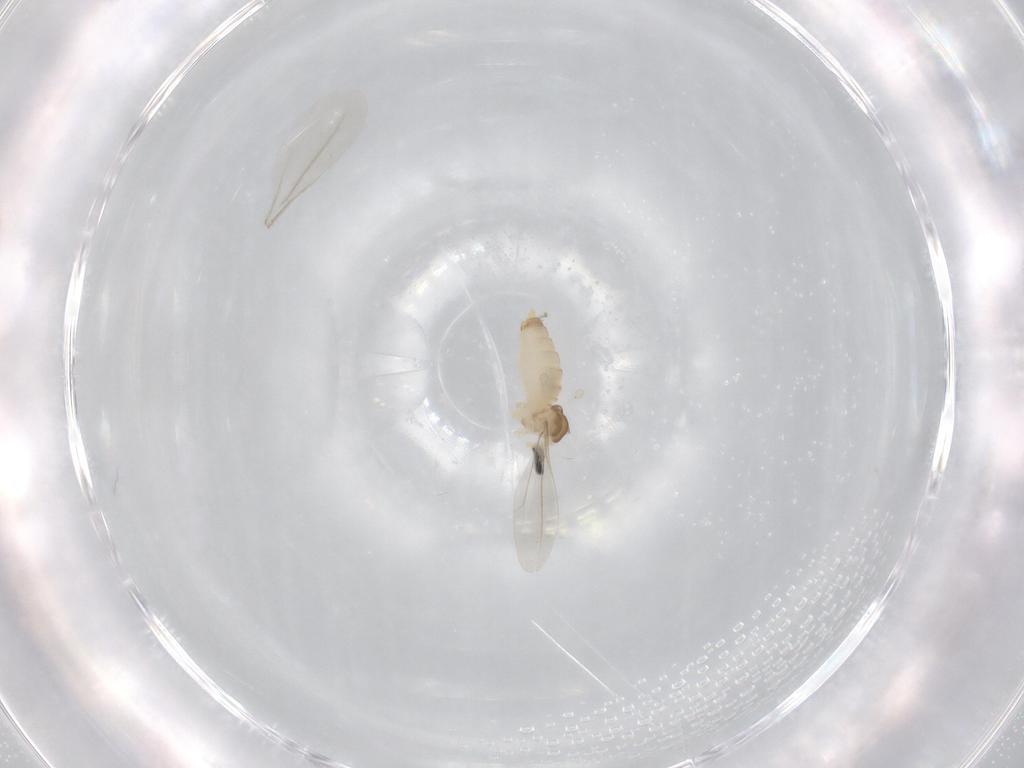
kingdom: Animalia
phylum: Arthropoda
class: Insecta
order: Diptera
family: Cecidomyiidae
